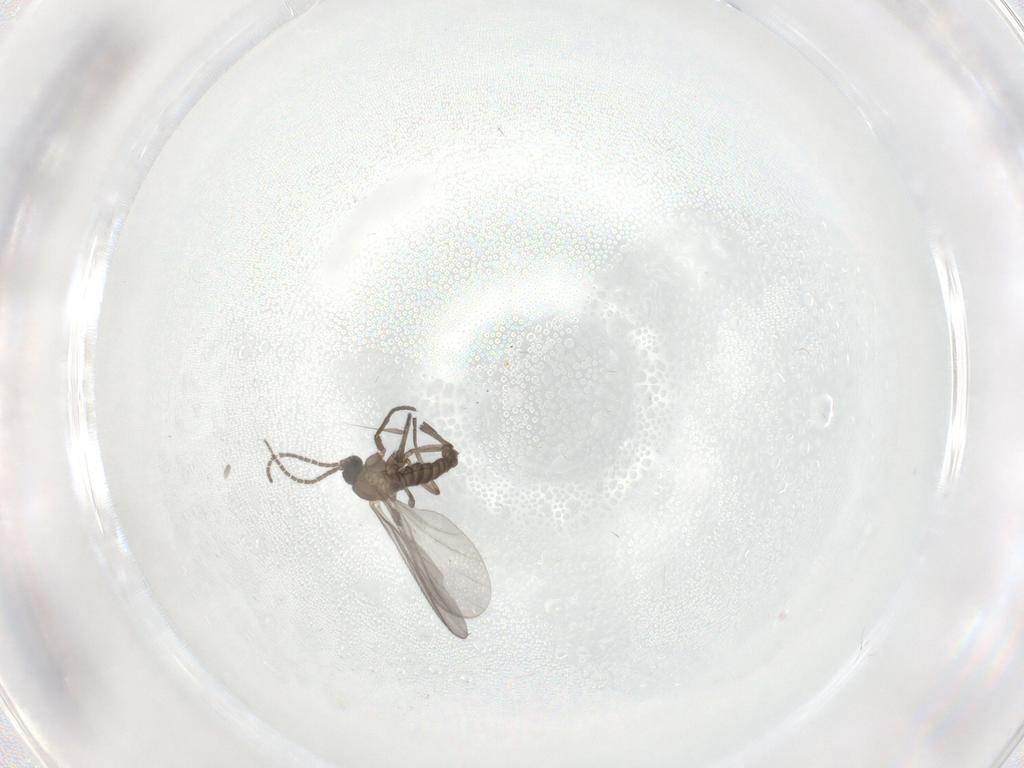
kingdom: Animalia
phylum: Arthropoda
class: Insecta
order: Diptera
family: Sciaridae
